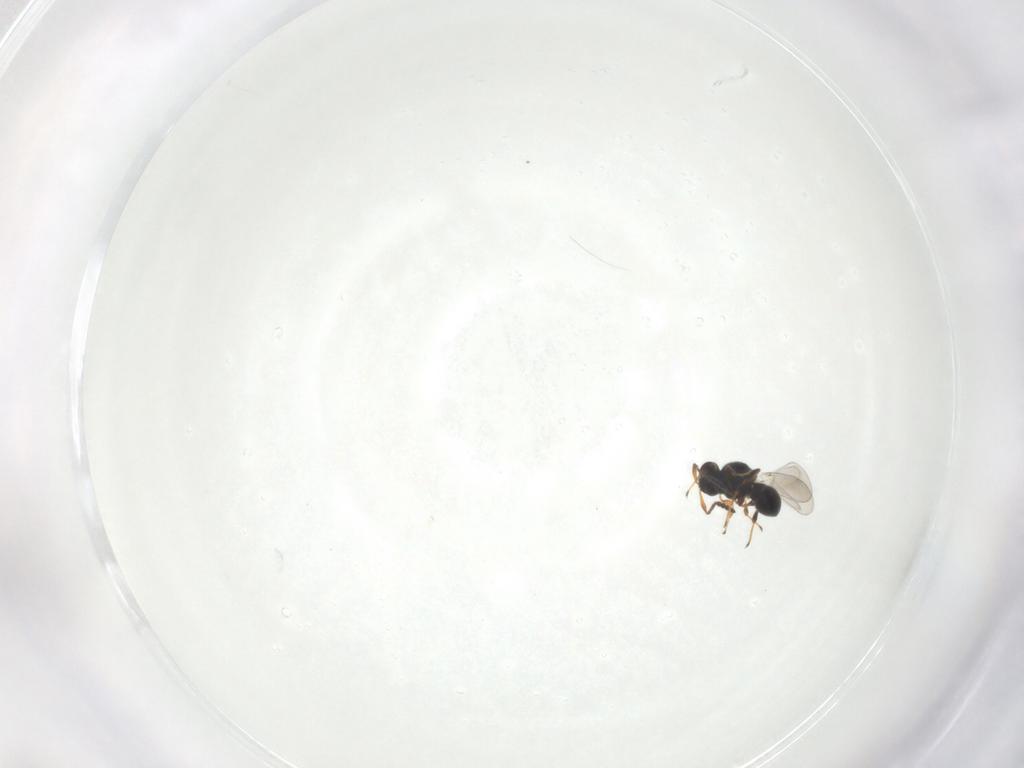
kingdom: Animalia
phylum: Arthropoda
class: Insecta
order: Hymenoptera
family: Platygastridae
